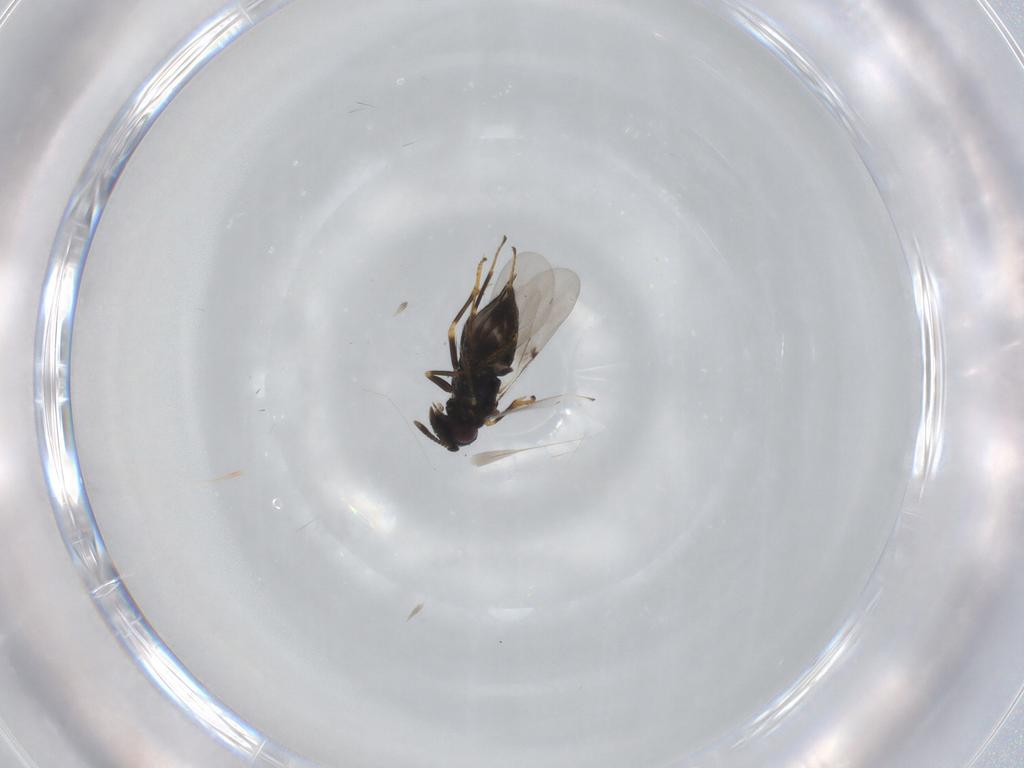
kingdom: Animalia
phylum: Arthropoda
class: Insecta
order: Hymenoptera
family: Encyrtidae
